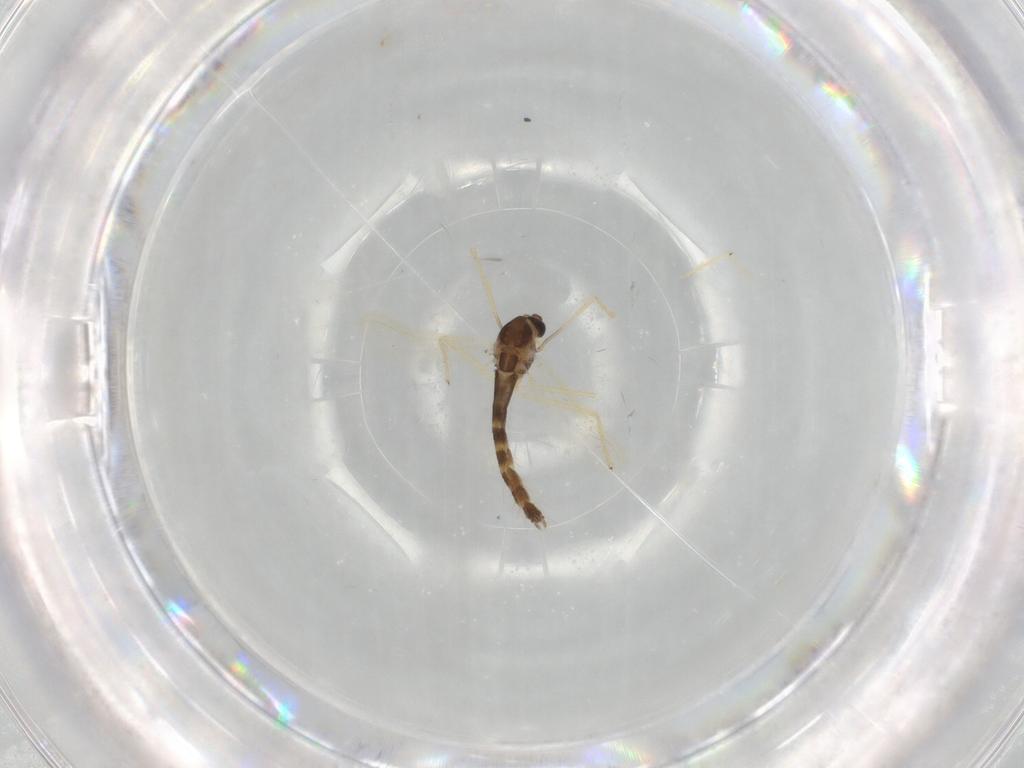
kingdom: Animalia
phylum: Arthropoda
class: Insecta
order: Diptera
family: Chironomidae
